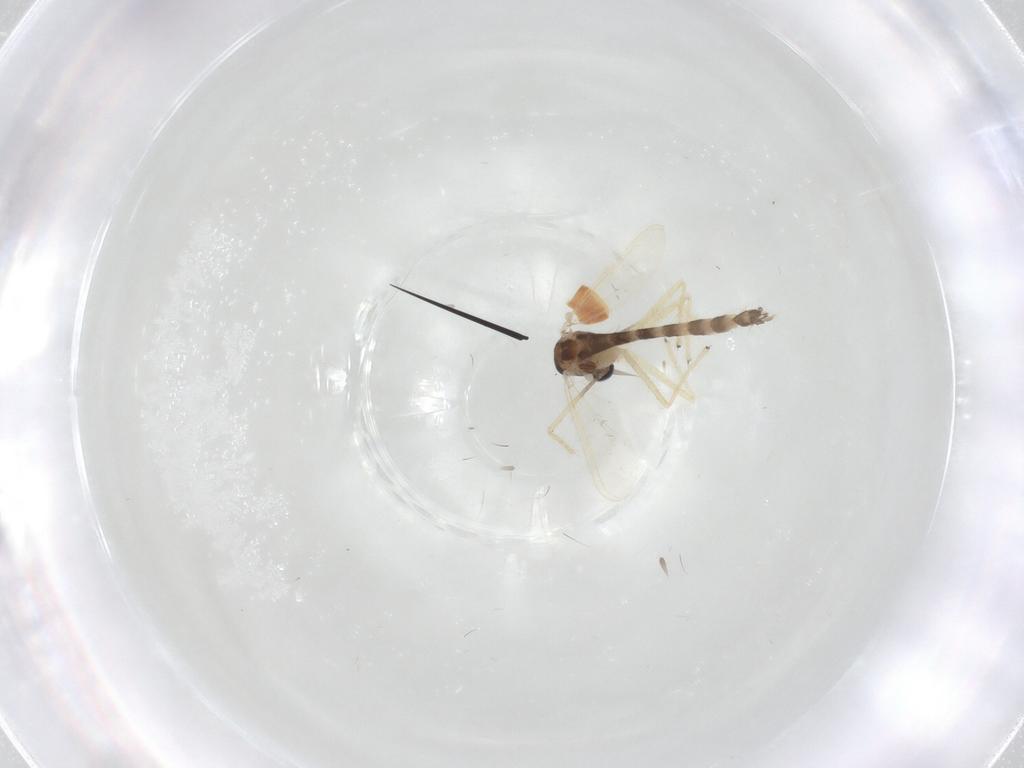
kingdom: Animalia
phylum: Arthropoda
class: Insecta
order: Diptera
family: Chironomidae
